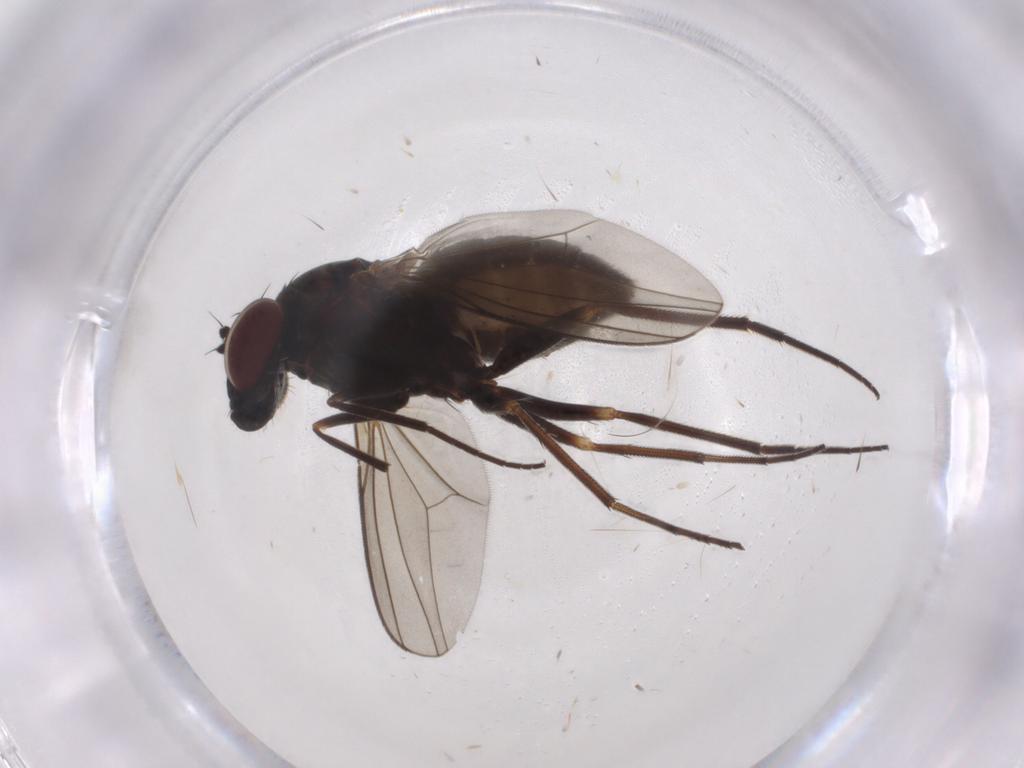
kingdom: Animalia
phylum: Arthropoda
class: Insecta
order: Diptera
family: Dolichopodidae
